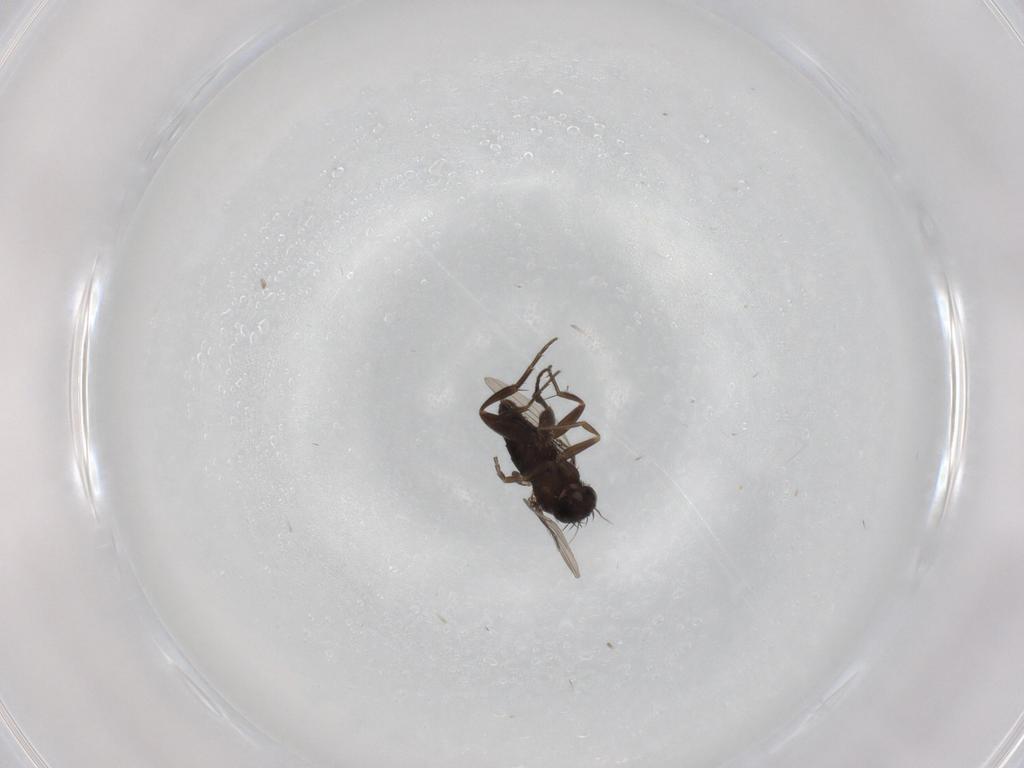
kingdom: Animalia
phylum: Arthropoda
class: Insecta
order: Diptera
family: Phoridae
